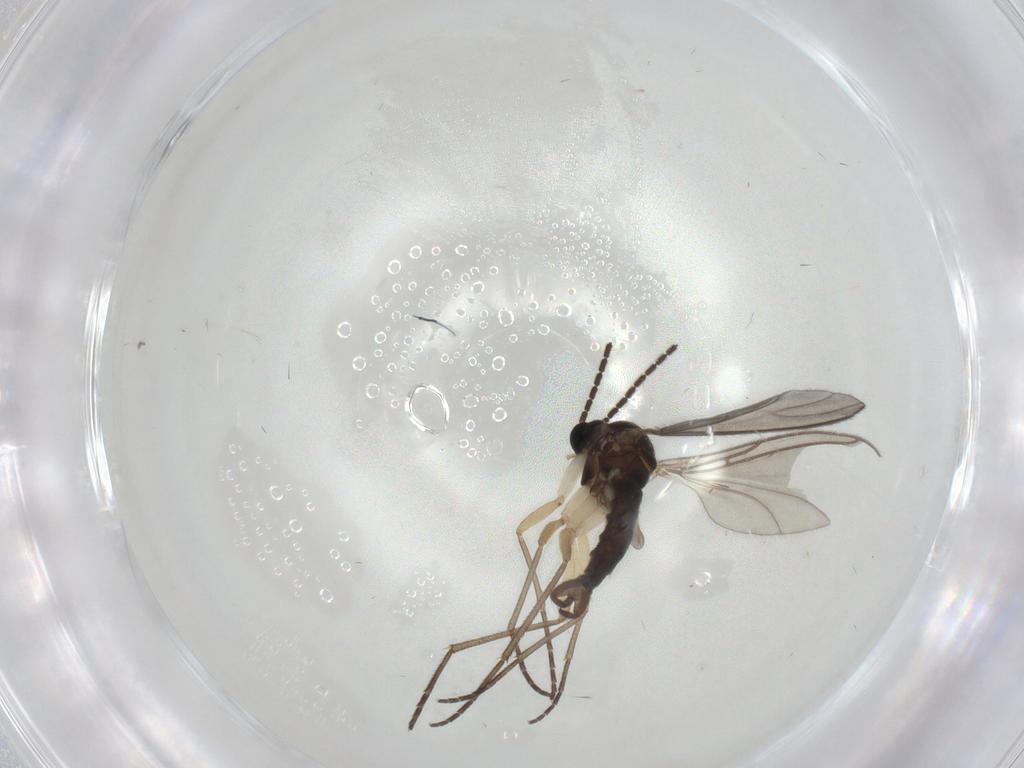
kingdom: Animalia
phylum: Arthropoda
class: Insecta
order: Diptera
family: Sciaridae
